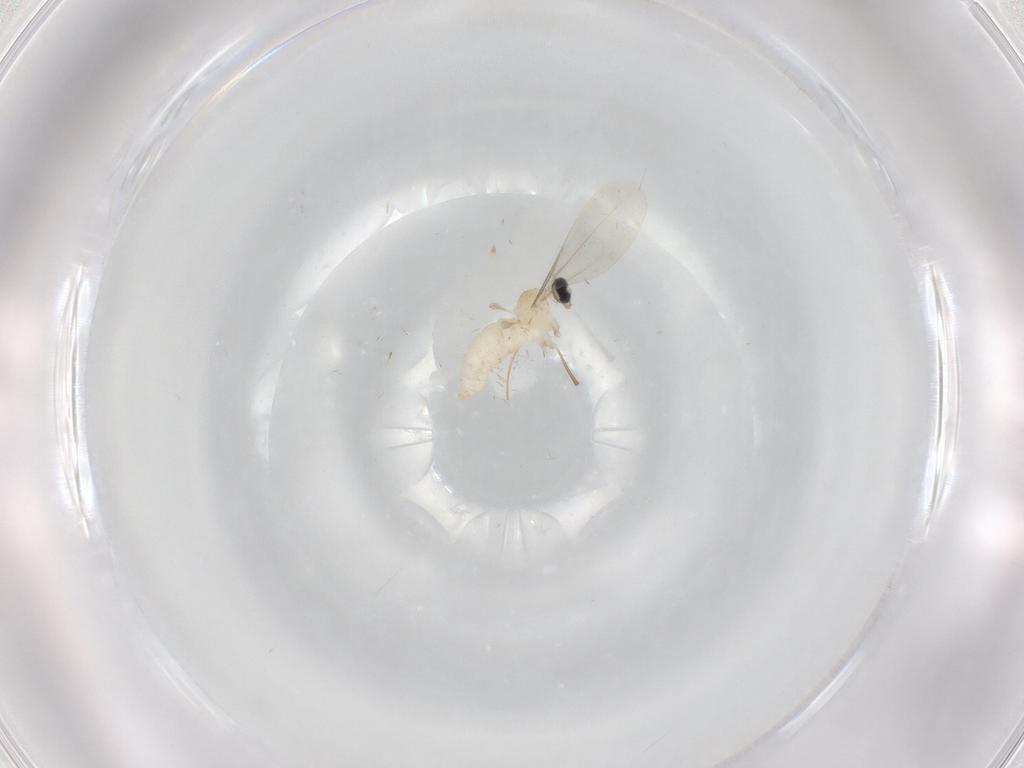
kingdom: Animalia
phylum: Arthropoda
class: Insecta
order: Diptera
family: Cecidomyiidae
